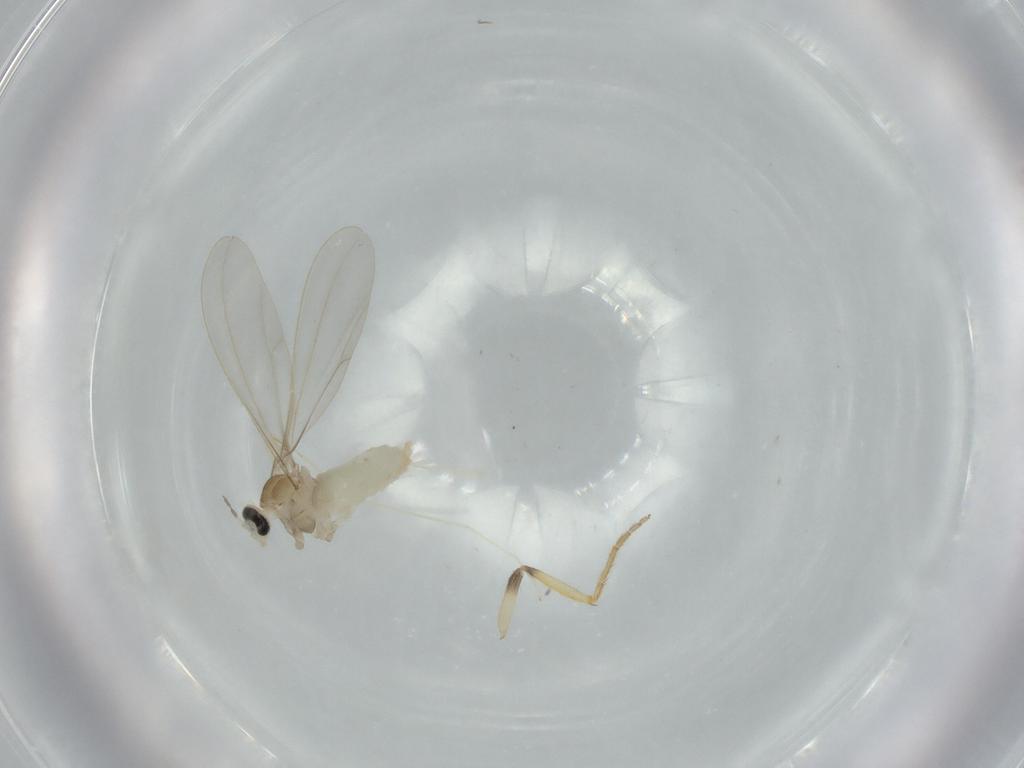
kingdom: Animalia
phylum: Arthropoda
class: Insecta
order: Diptera
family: Cecidomyiidae
